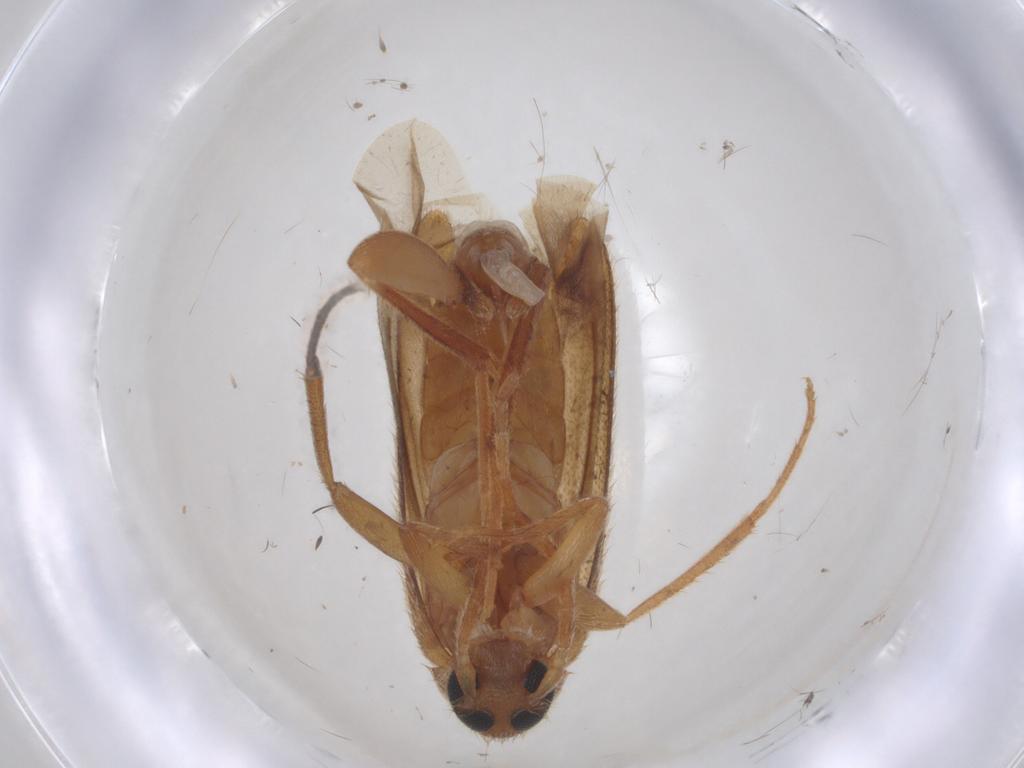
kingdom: Animalia
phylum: Arthropoda
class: Insecta
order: Coleoptera
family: Scraptiidae
